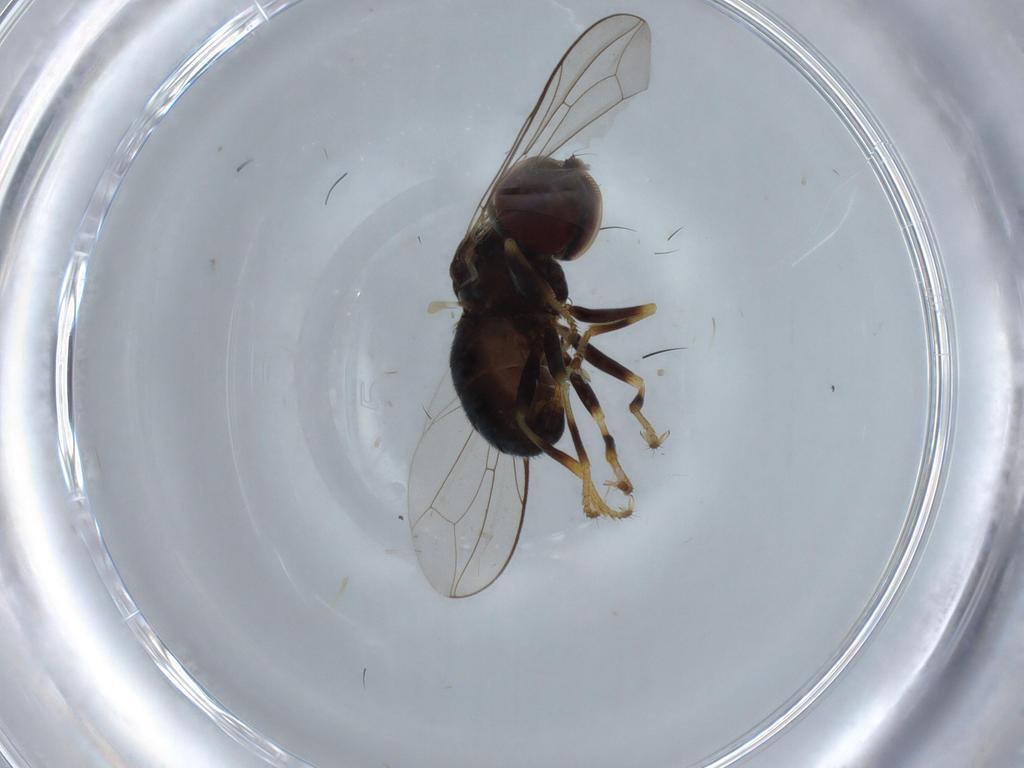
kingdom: Animalia
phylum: Arthropoda
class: Insecta
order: Diptera
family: Pipunculidae
